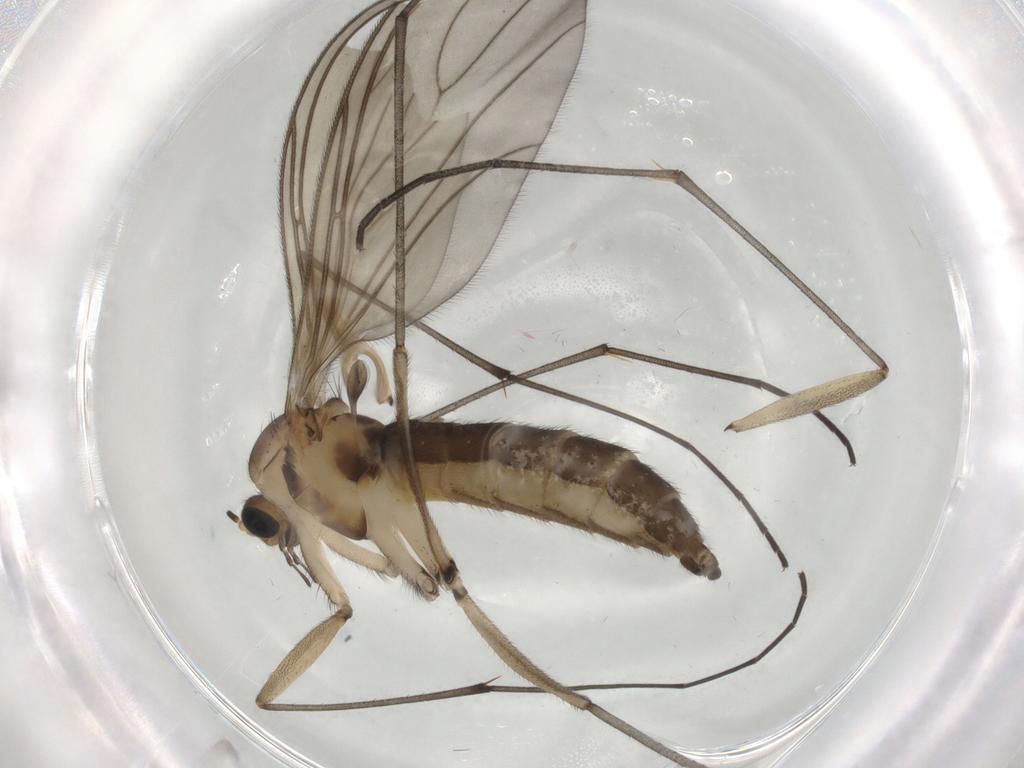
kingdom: Animalia
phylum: Arthropoda
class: Insecta
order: Diptera
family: Sciaridae
